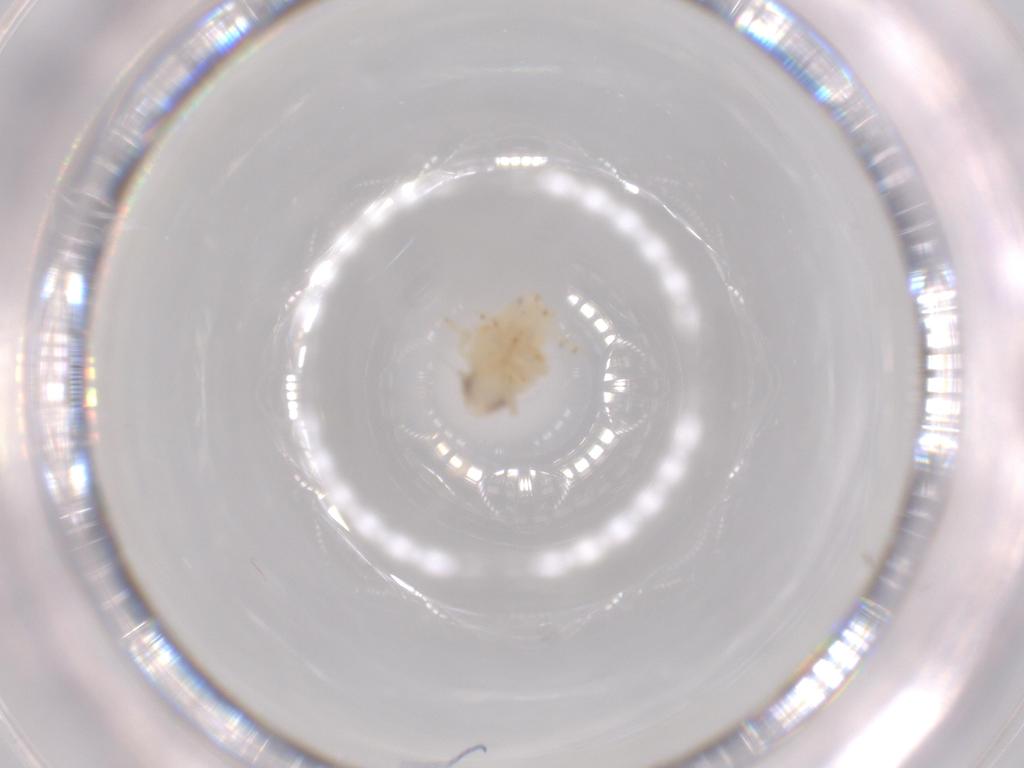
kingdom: Animalia
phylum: Arthropoda
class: Insecta
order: Hemiptera
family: Nogodinidae
